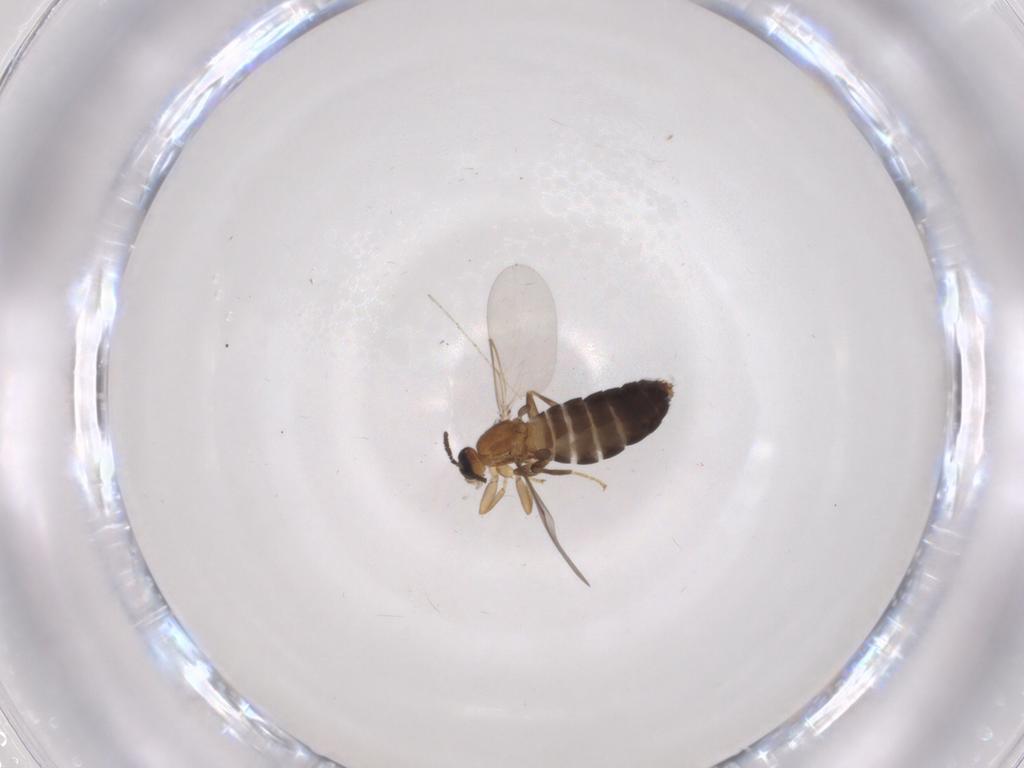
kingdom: Animalia
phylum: Arthropoda
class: Insecta
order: Diptera
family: Scatopsidae
